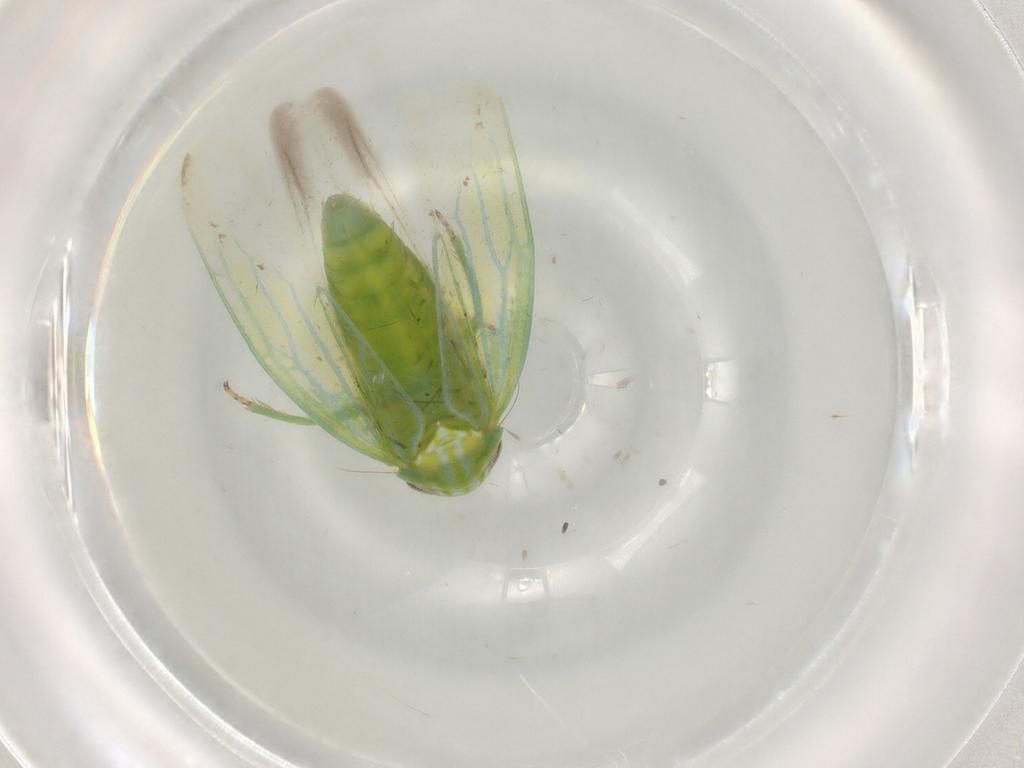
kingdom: Animalia
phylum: Arthropoda
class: Insecta
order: Hemiptera
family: Cicadellidae
